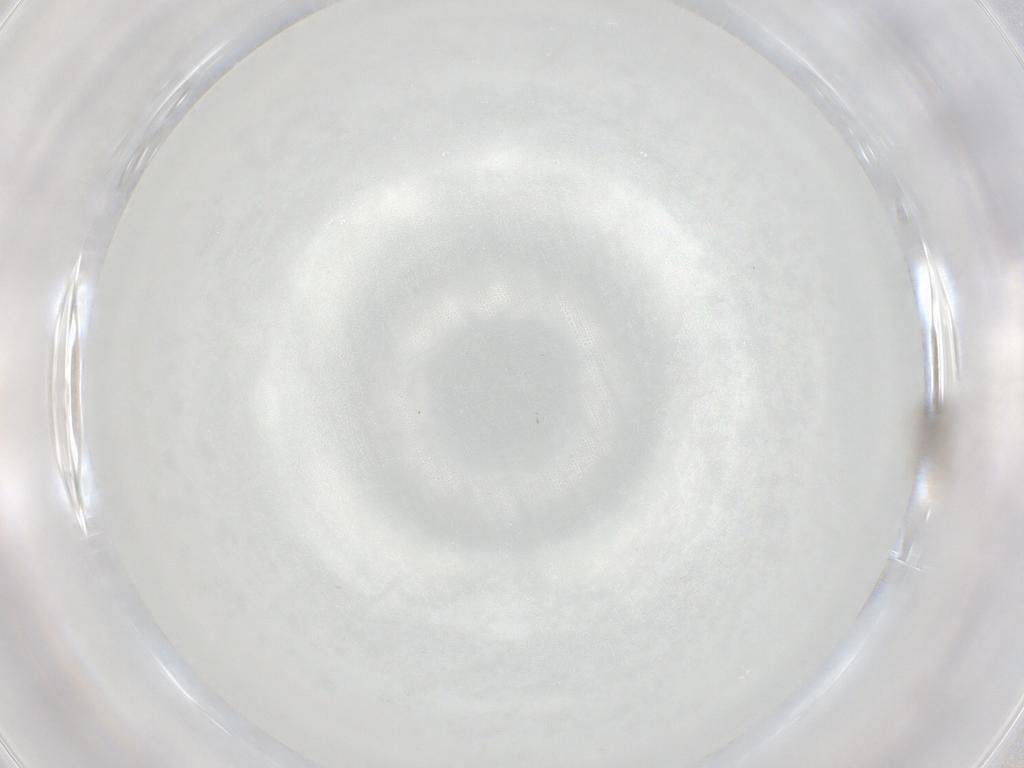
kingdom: Animalia
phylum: Arthropoda
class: Insecta
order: Diptera
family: Cecidomyiidae
